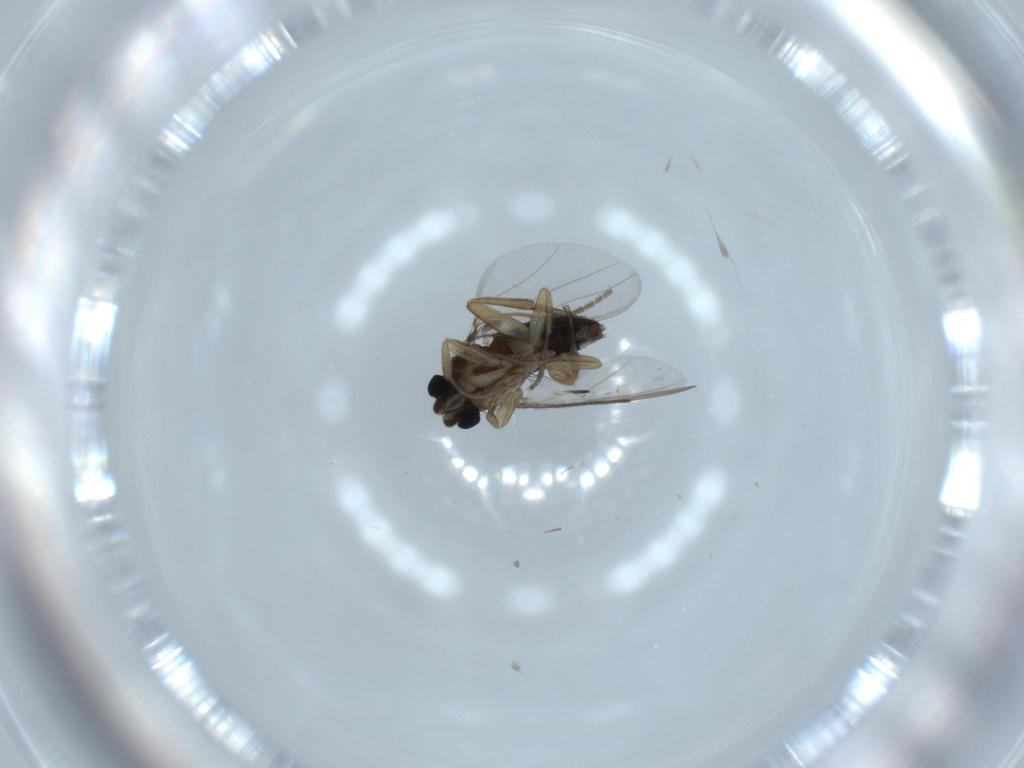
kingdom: Animalia
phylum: Arthropoda
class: Insecta
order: Diptera
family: Phoridae
